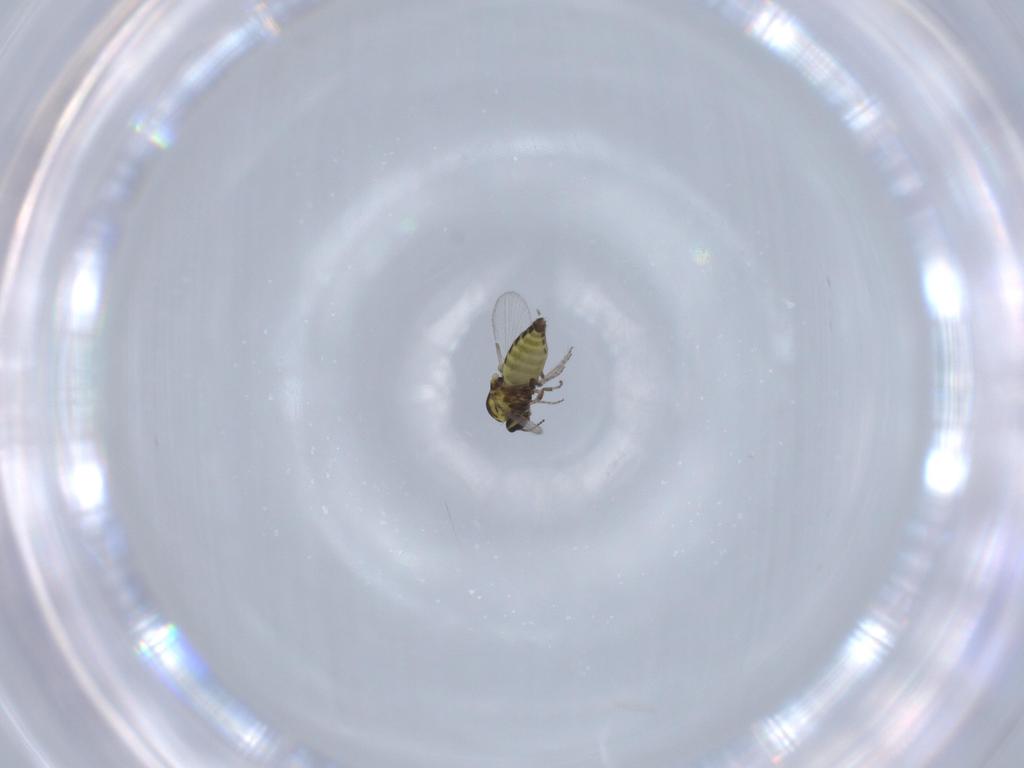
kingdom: Animalia
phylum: Arthropoda
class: Insecta
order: Diptera
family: Ceratopogonidae
